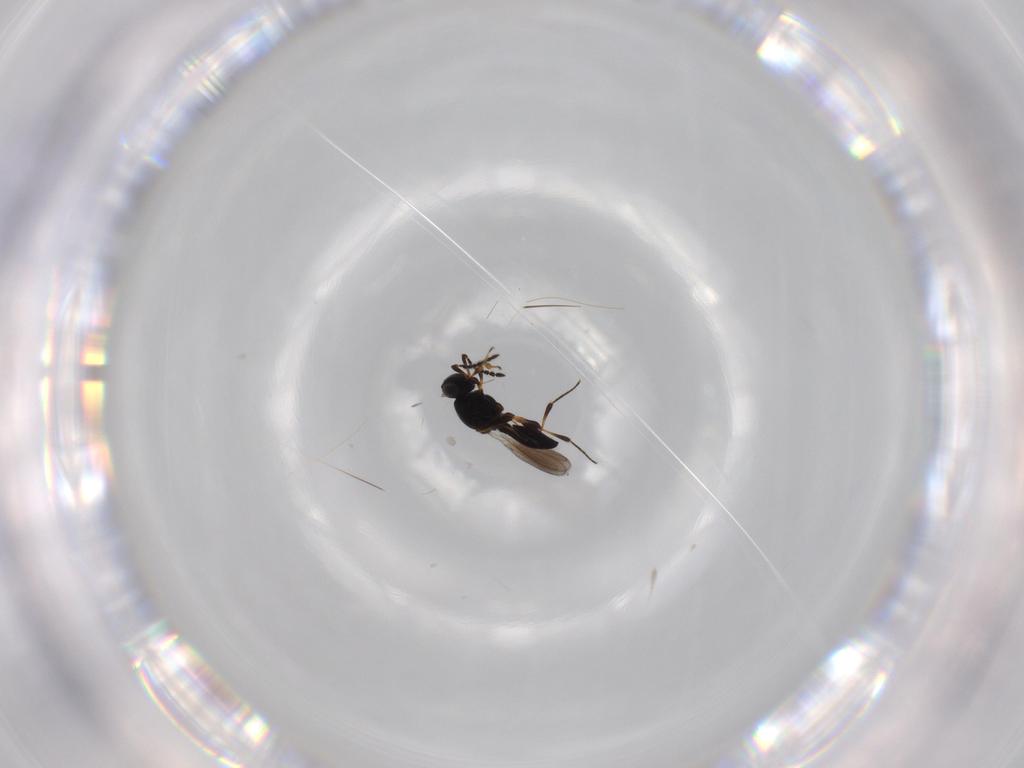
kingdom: Animalia
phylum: Arthropoda
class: Insecta
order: Hymenoptera
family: Platygastridae
